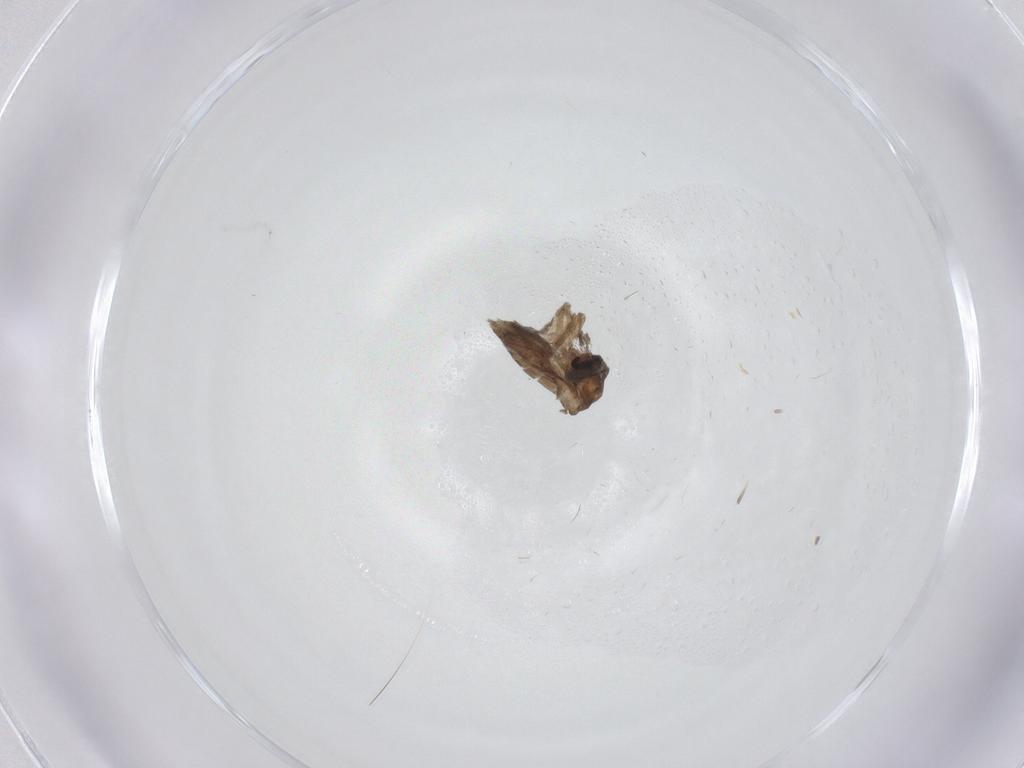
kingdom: Animalia
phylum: Arthropoda
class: Insecta
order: Diptera
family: Ceratopogonidae
